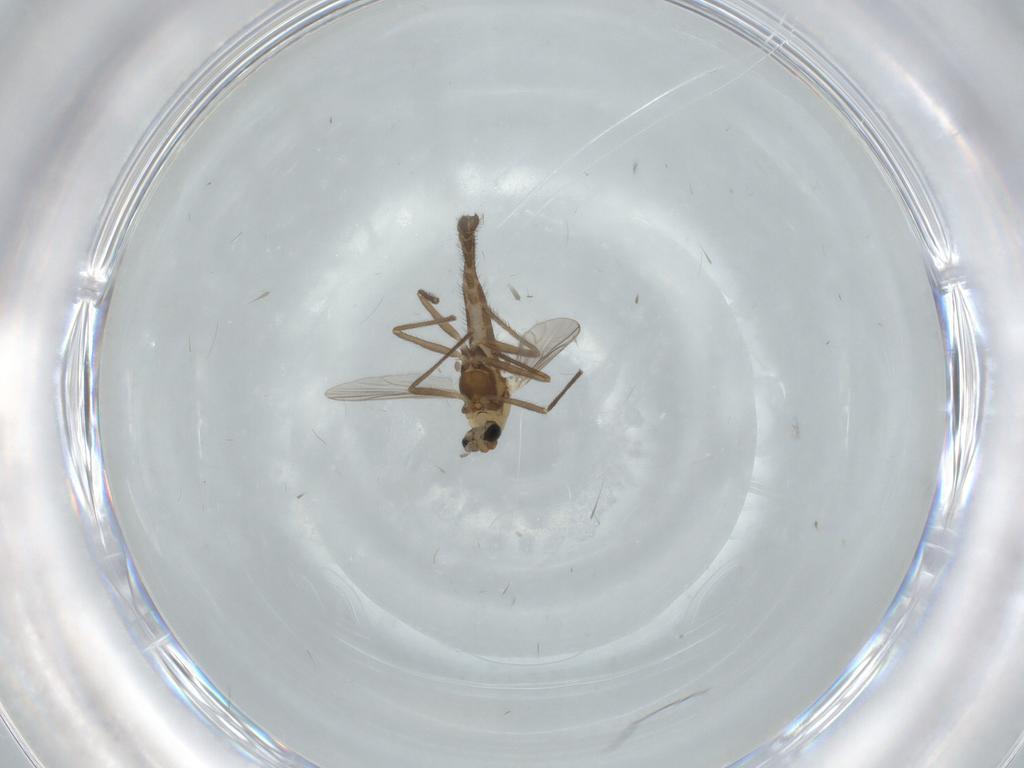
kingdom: Animalia
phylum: Arthropoda
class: Insecta
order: Diptera
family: Chironomidae
